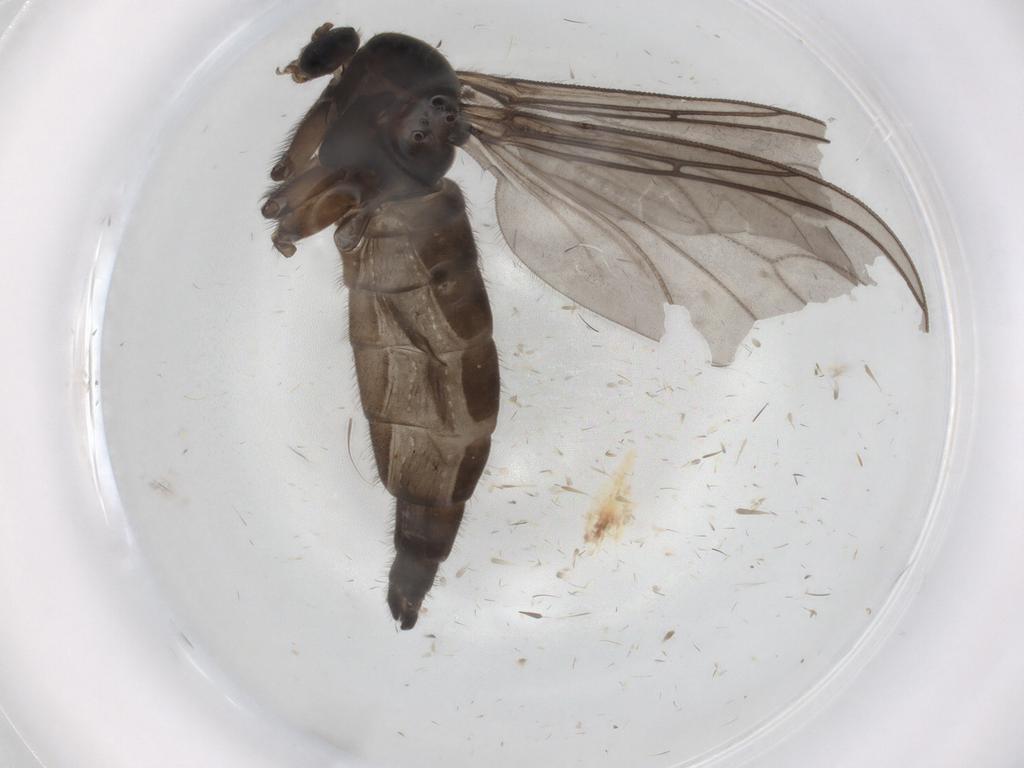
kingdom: Animalia
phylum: Arthropoda
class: Insecta
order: Diptera
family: Sciaridae
